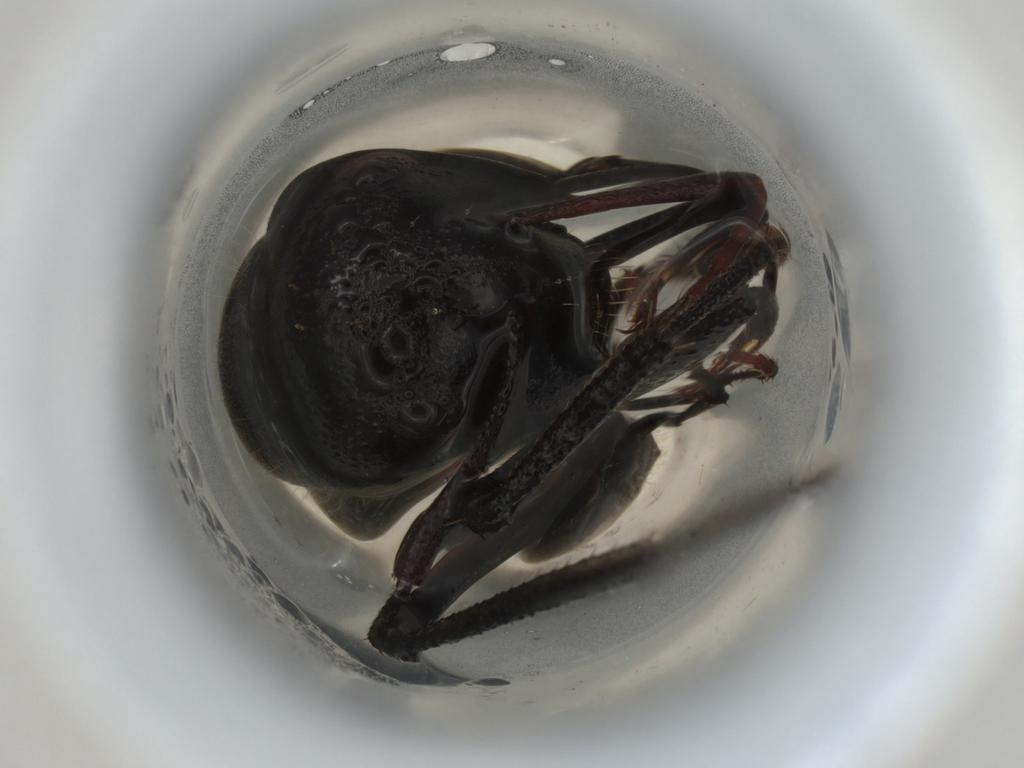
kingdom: Animalia
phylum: Arthropoda
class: Insecta
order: Hymenoptera
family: Formicidae
